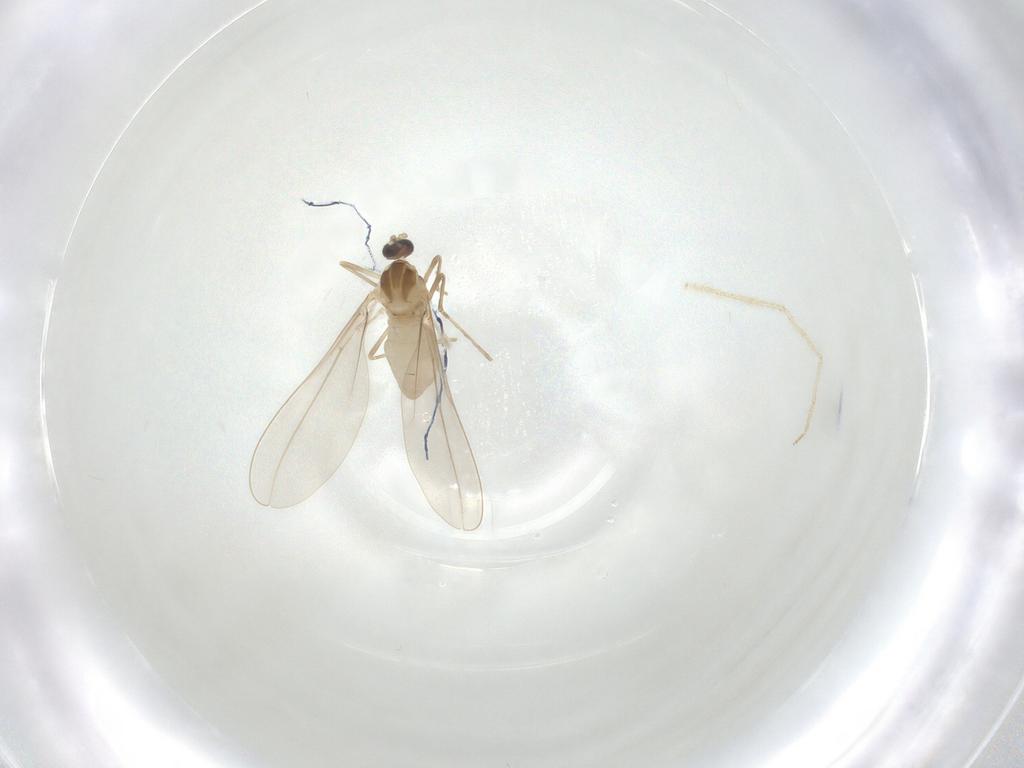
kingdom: Animalia
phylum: Arthropoda
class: Insecta
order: Diptera
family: Cecidomyiidae
